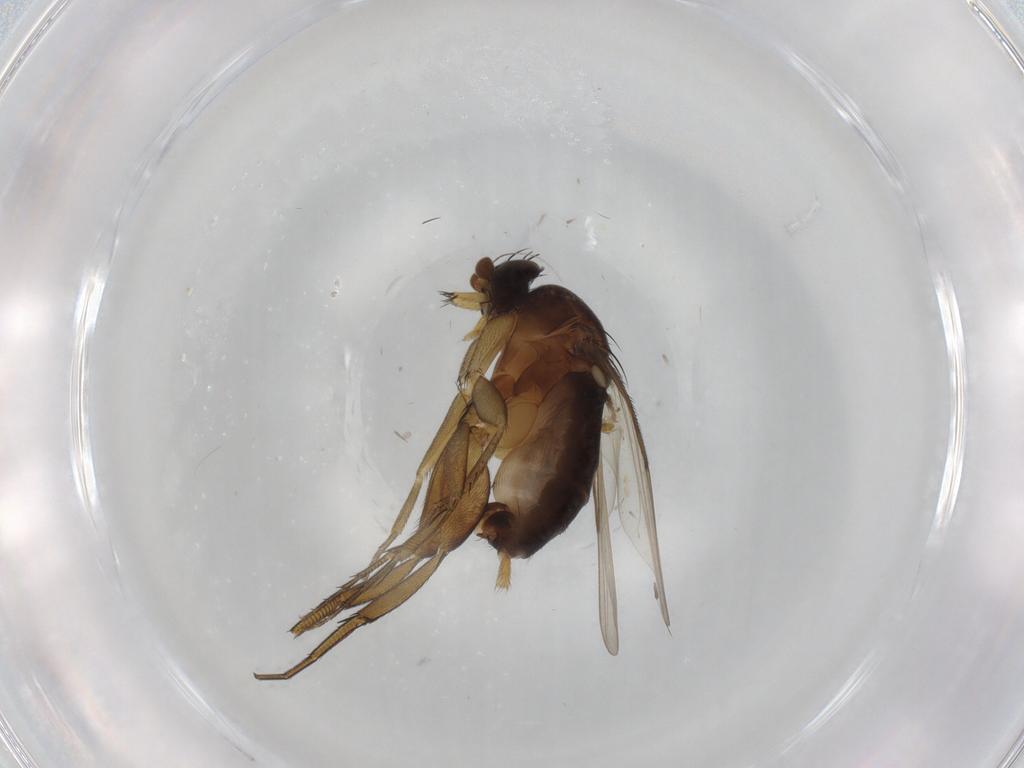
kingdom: Animalia
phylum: Arthropoda
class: Insecta
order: Diptera
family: Phoridae
